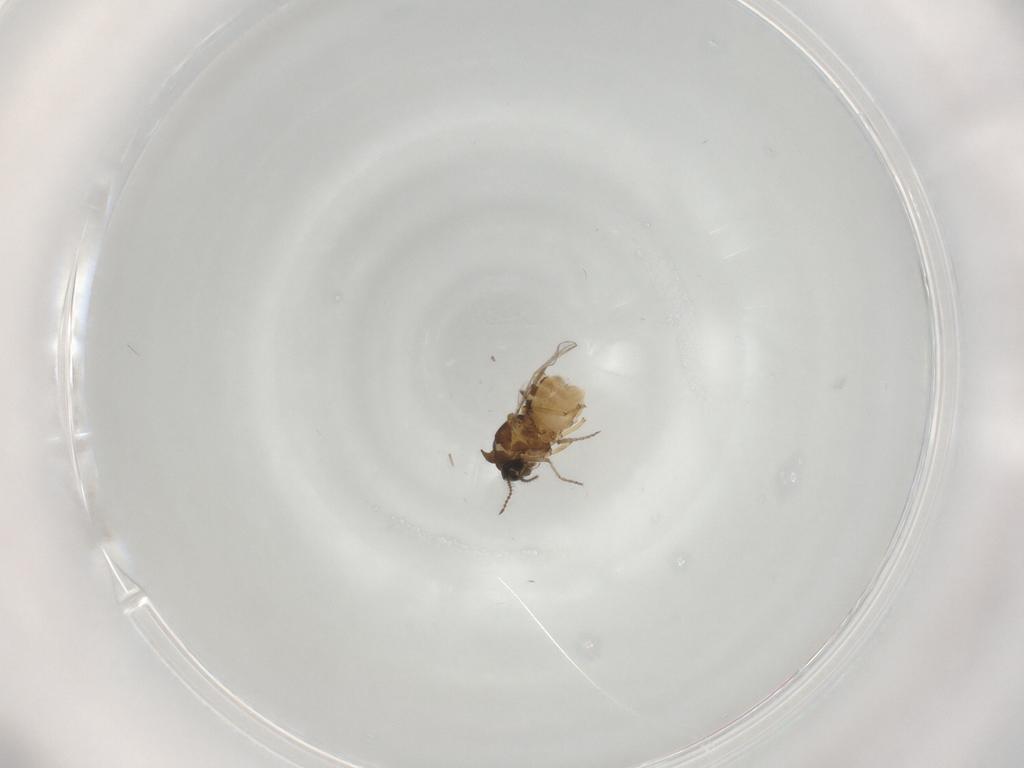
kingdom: Animalia
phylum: Arthropoda
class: Insecta
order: Diptera
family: Ceratopogonidae
